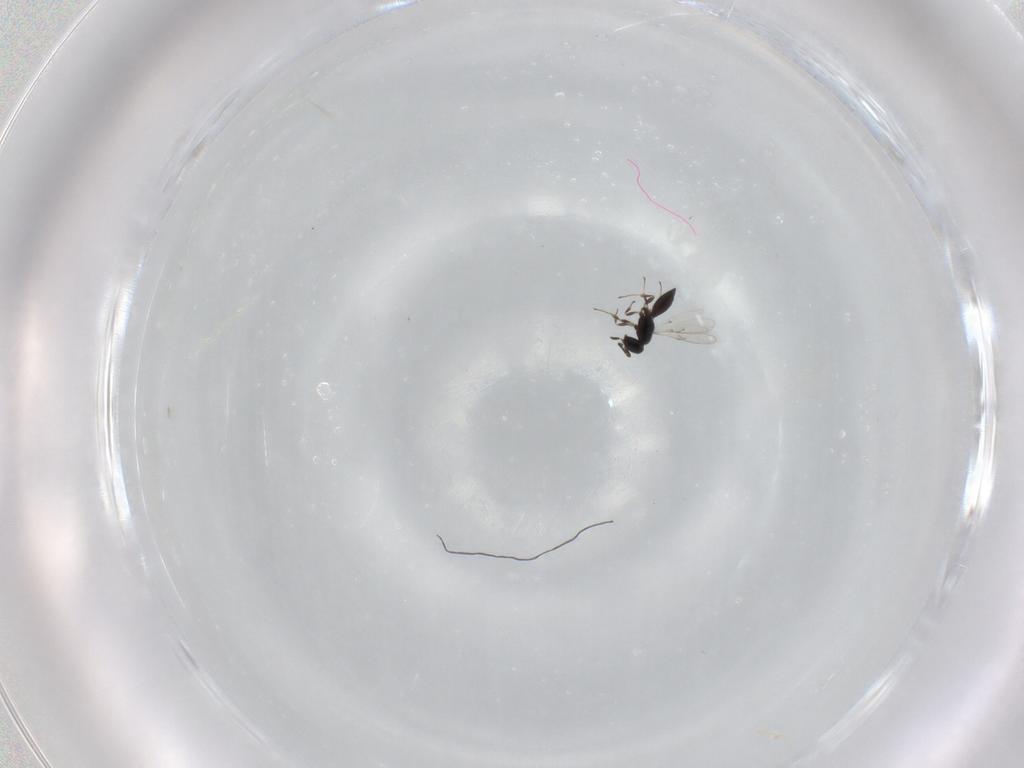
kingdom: Animalia
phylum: Arthropoda
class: Insecta
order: Hymenoptera
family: Scelionidae
